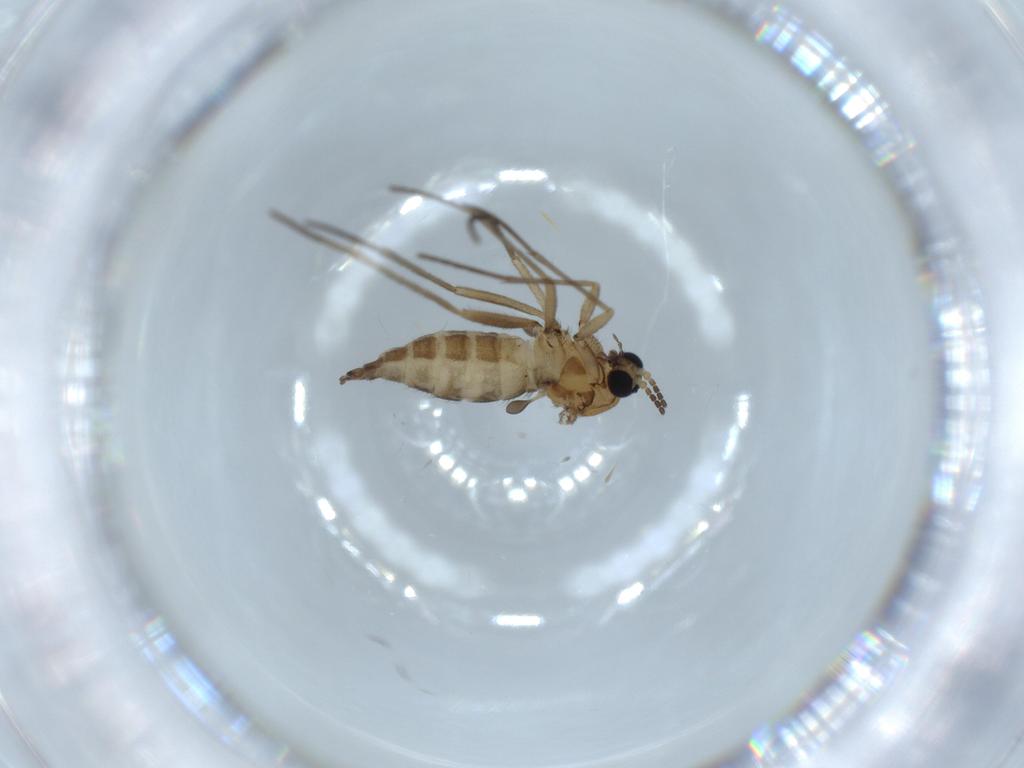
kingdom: Animalia
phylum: Arthropoda
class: Insecta
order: Diptera
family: Sciaridae
